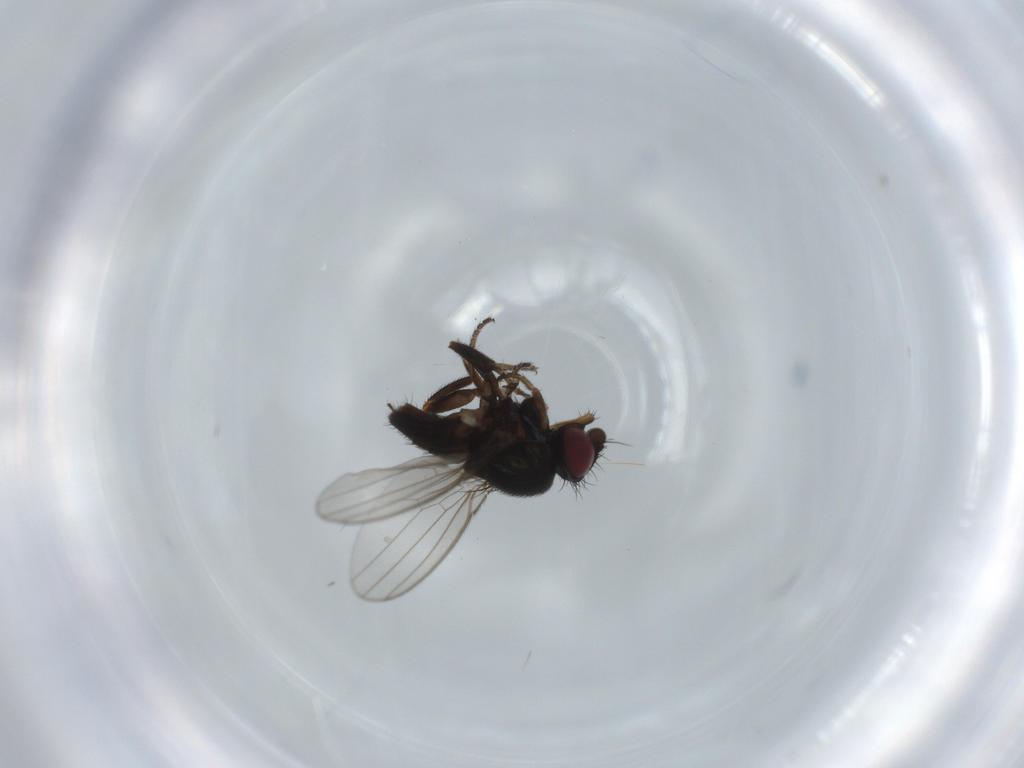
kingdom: Animalia
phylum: Arthropoda
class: Insecta
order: Diptera
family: Milichiidae
